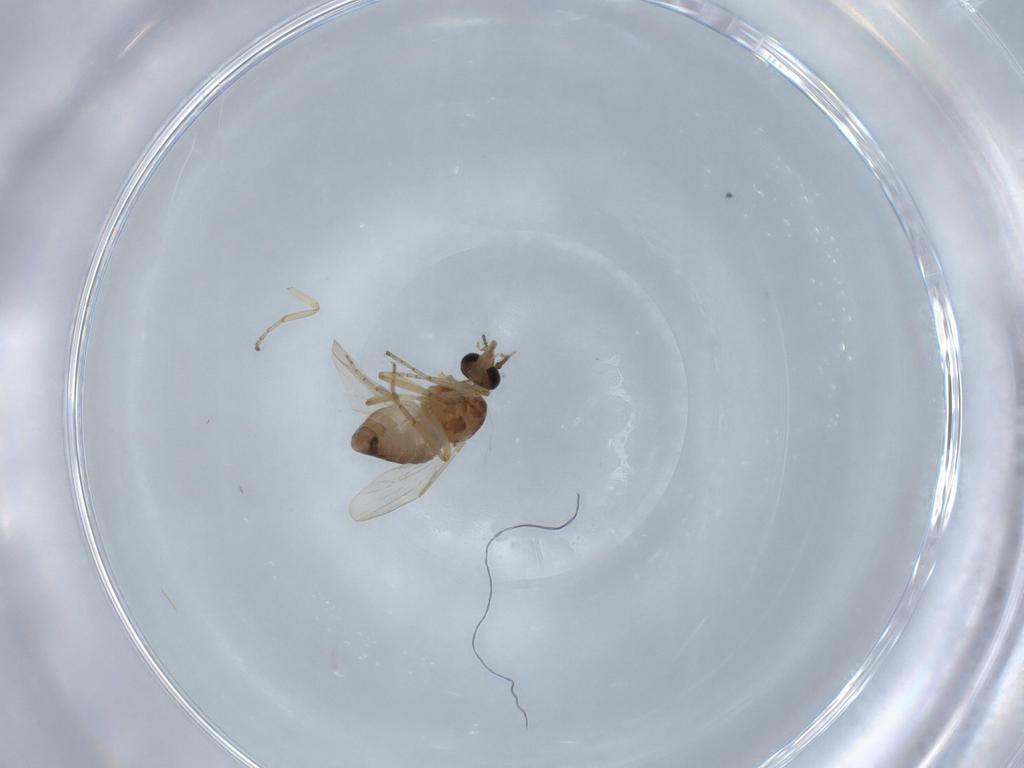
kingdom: Animalia
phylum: Arthropoda
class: Insecta
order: Diptera
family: Ceratopogonidae
